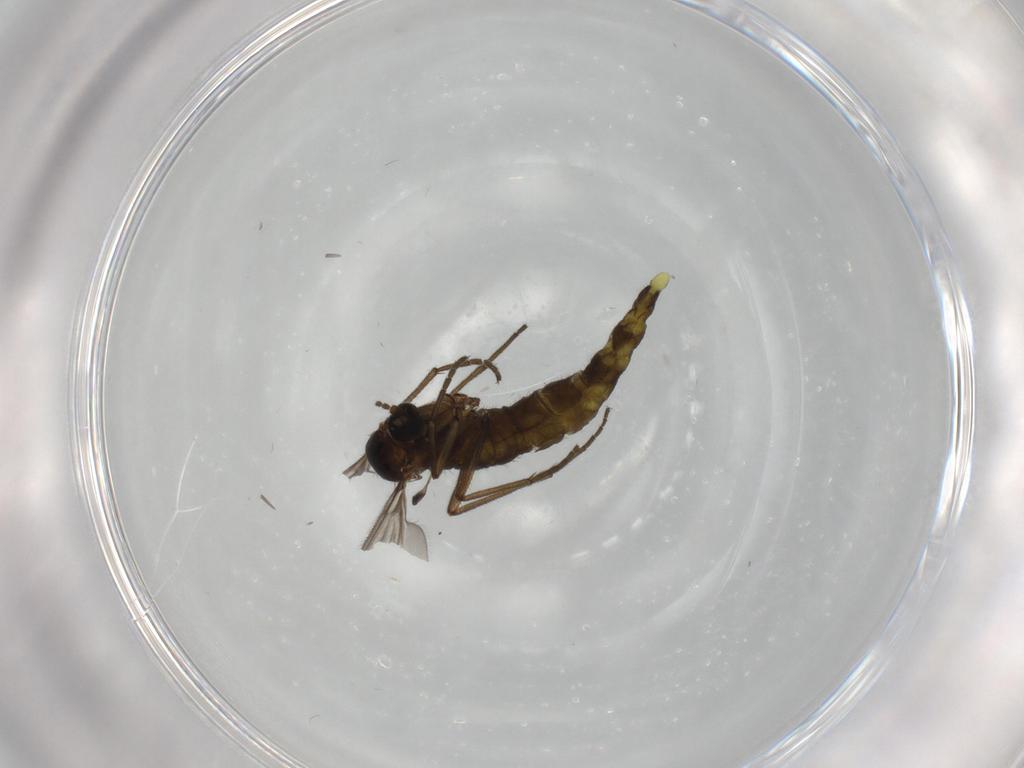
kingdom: Animalia
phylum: Arthropoda
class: Insecta
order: Diptera
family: Sciaridae
